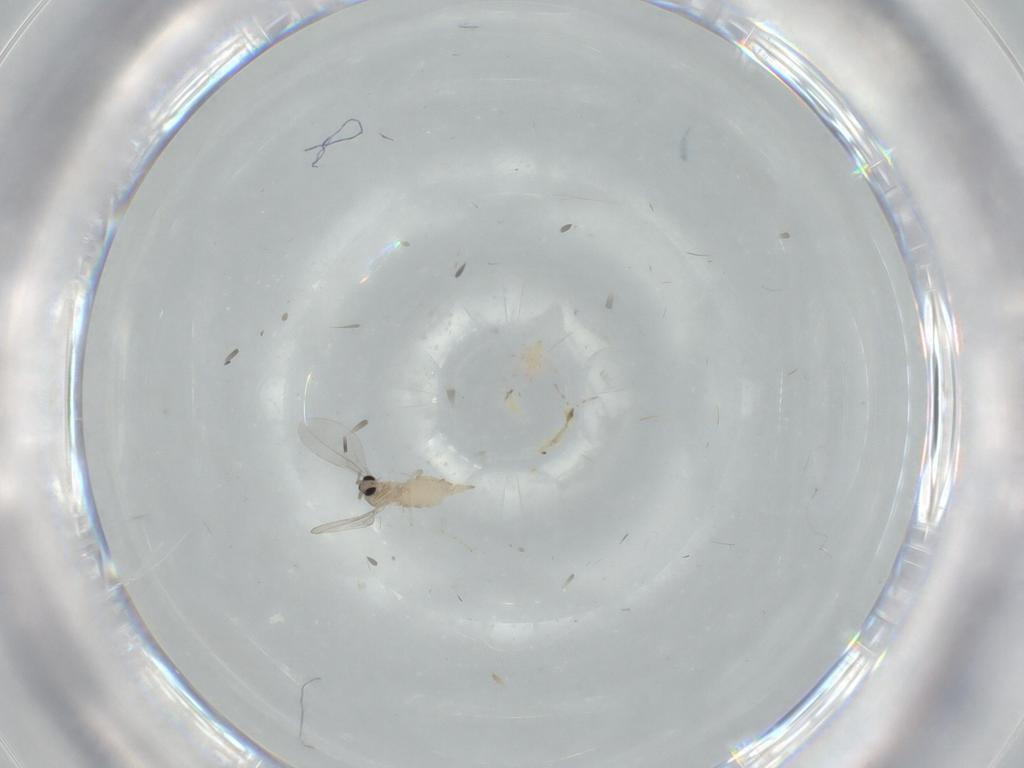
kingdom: Animalia
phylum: Arthropoda
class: Insecta
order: Diptera
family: Cecidomyiidae
